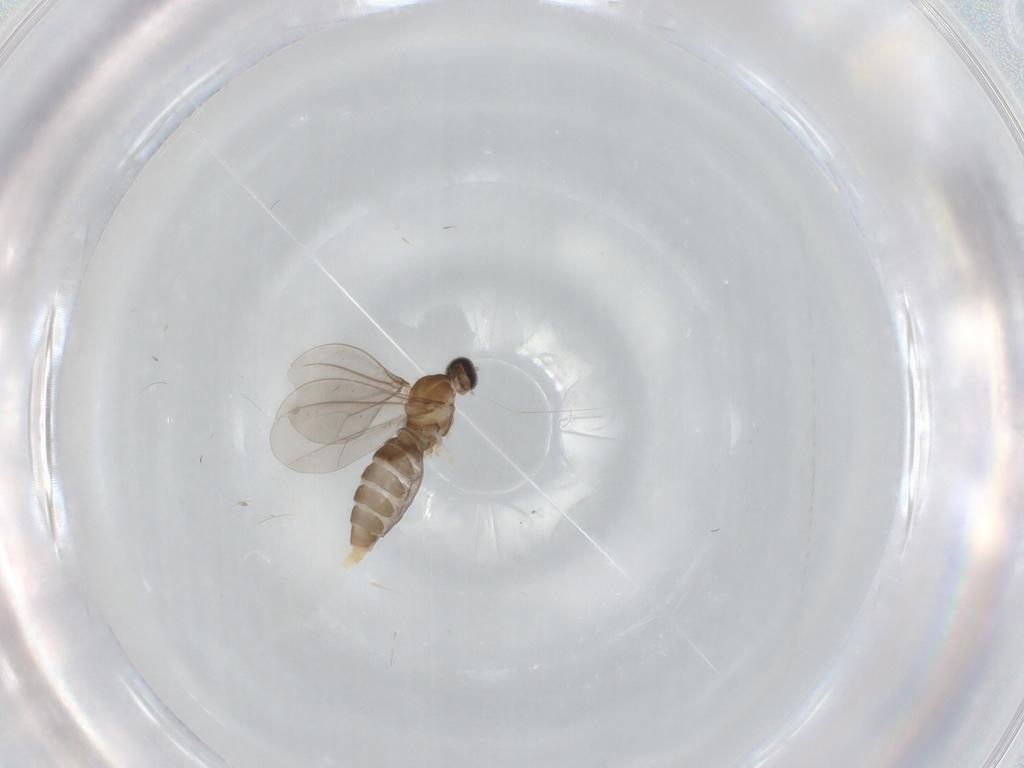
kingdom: Animalia
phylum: Arthropoda
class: Insecta
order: Diptera
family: Cecidomyiidae
